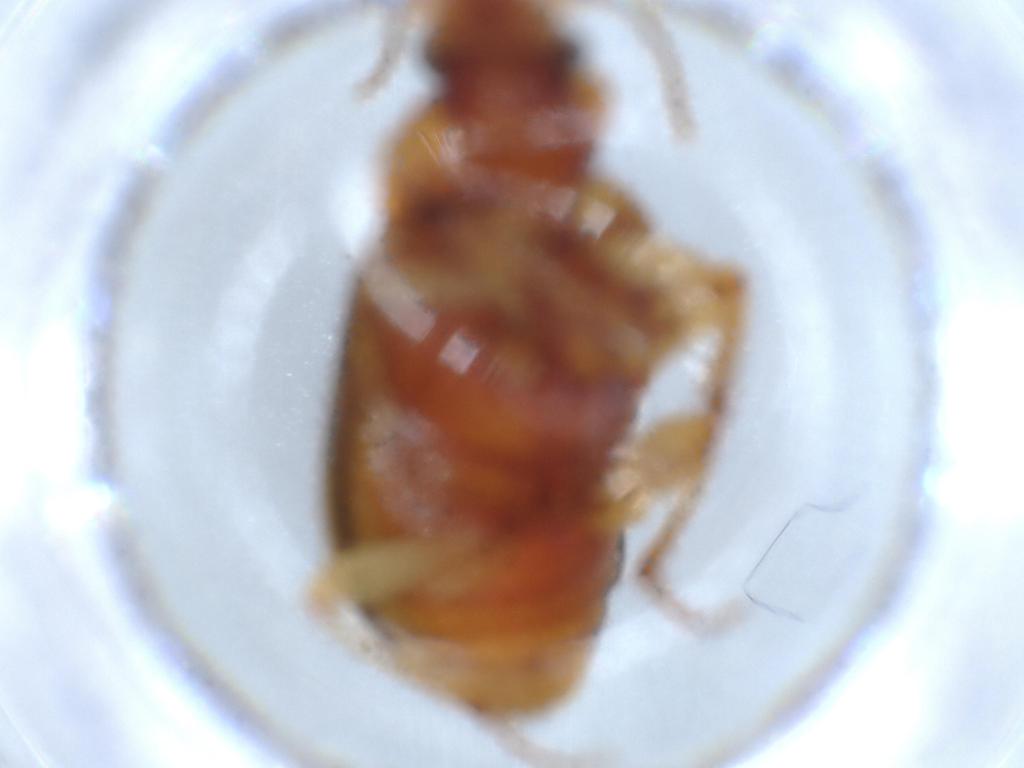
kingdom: Animalia
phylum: Arthropoda
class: Insecta
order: Coleoptera
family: Carabidae
